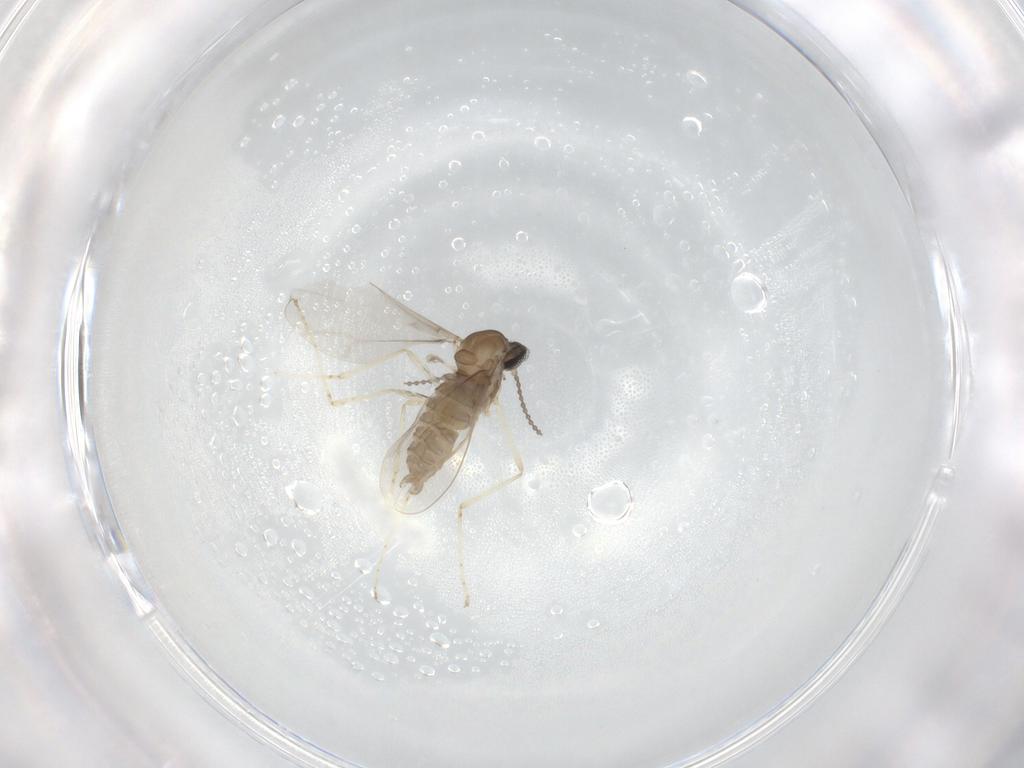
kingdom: Animalia
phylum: Arthropoda
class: Insecta
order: Diptera
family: Cecidomyiidae
